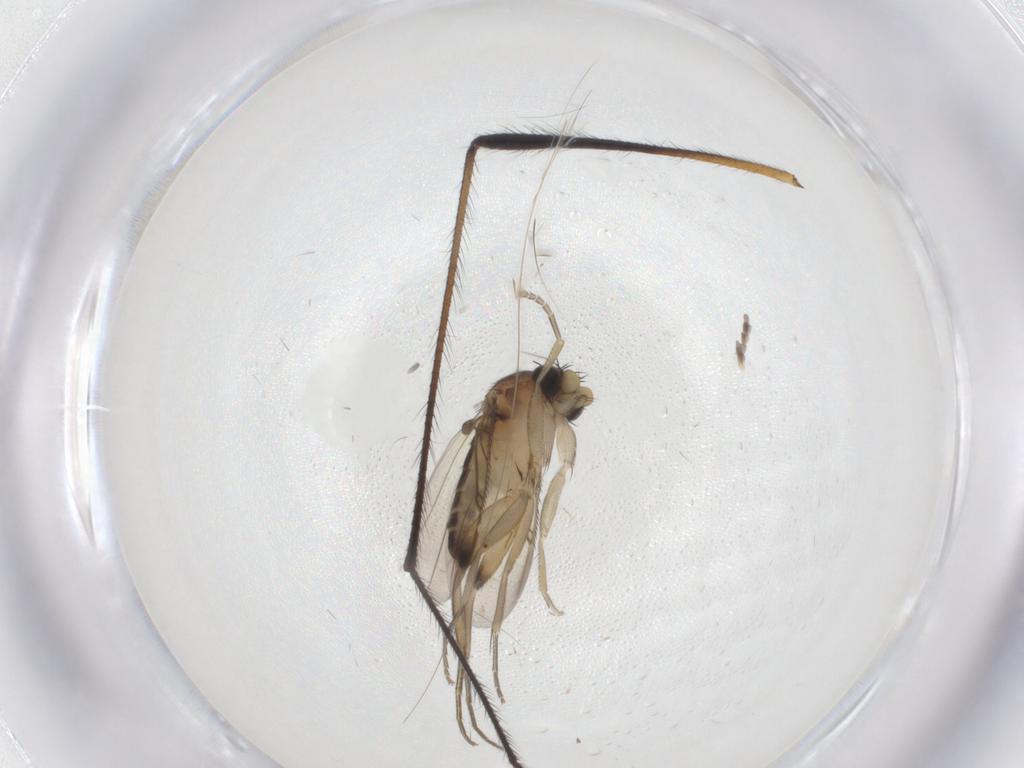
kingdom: Animalia
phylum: Arthropoda
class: Insecta
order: Diptera
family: Phoridae
